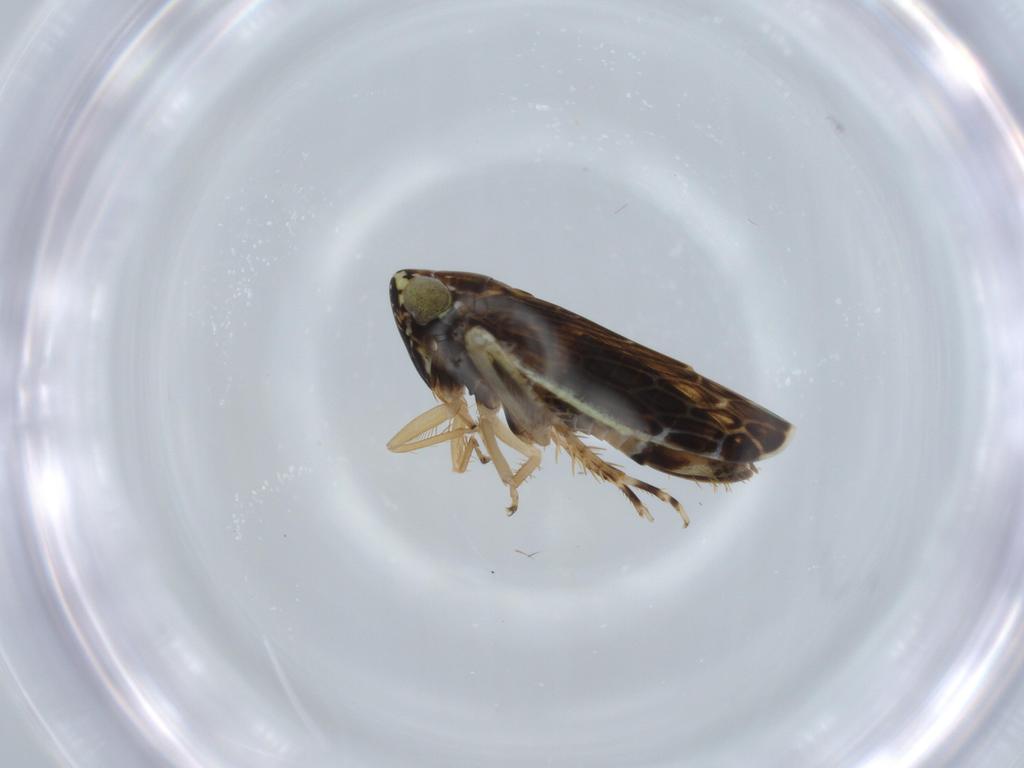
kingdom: Animalia
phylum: Arthropoda
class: Insecta
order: Hemiptera
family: Cicadellidae
